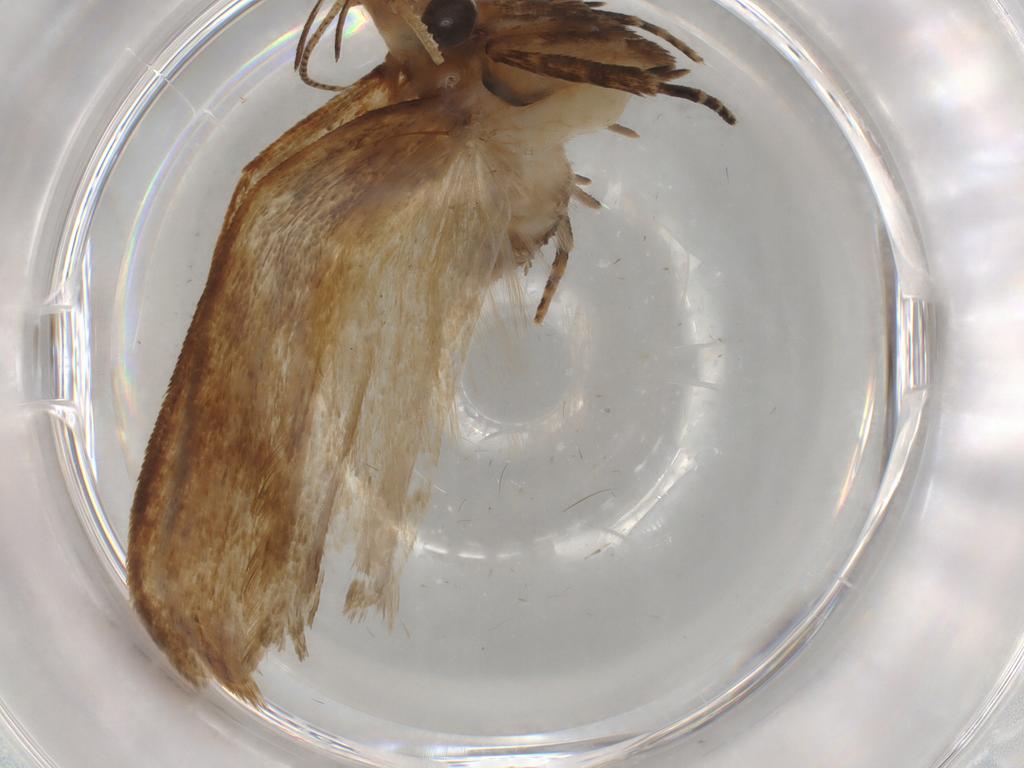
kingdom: Animalia
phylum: Arthropoda
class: Insecta
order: Lepidoptera
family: Gelechiidae
